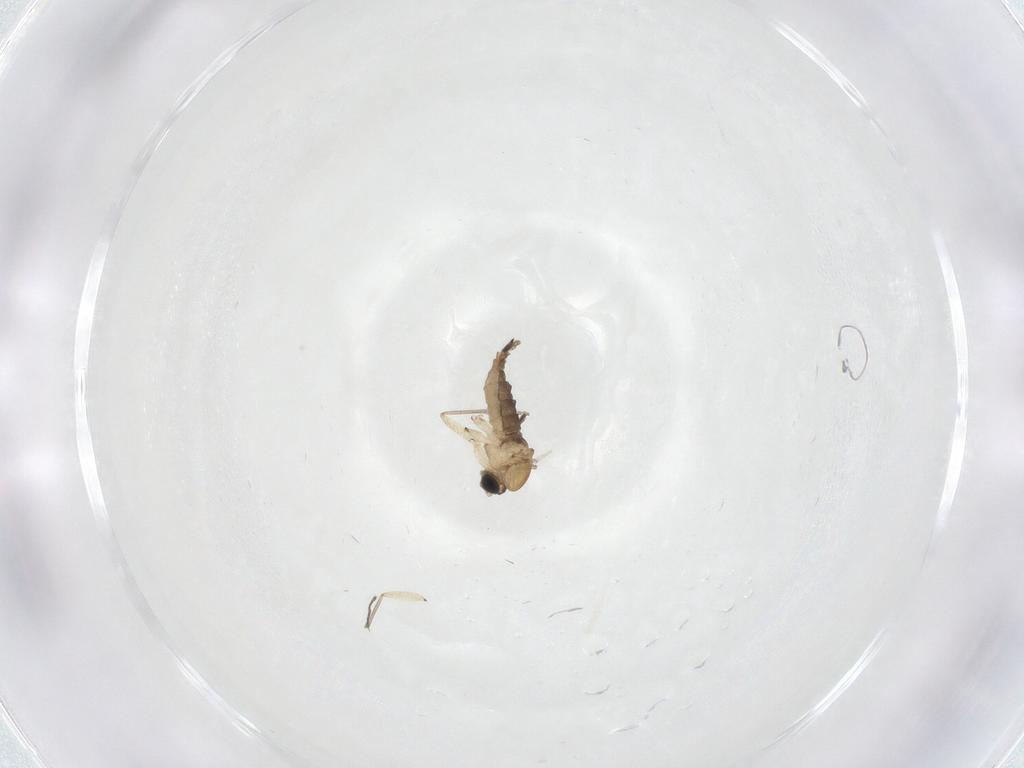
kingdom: Animalia
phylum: Arthropoda
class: Insecta
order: Diptera
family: Sciaridae
